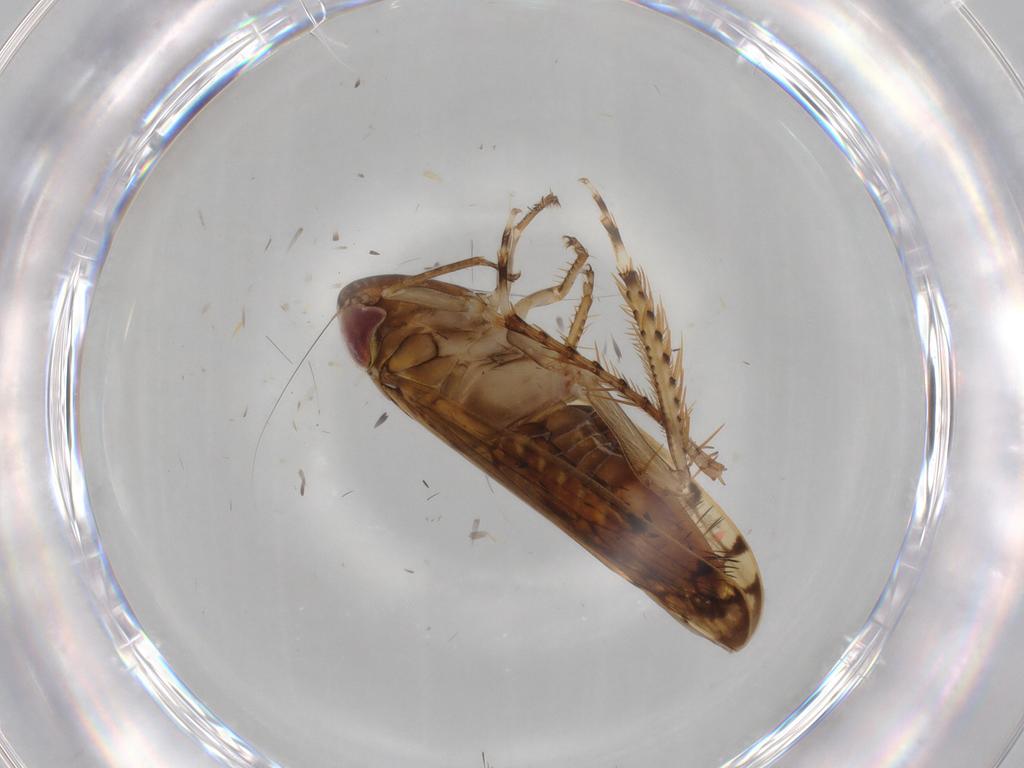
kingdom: Animalia
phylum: Arthropoda
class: Insecta
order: Hemiptera
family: Cicadellidae
